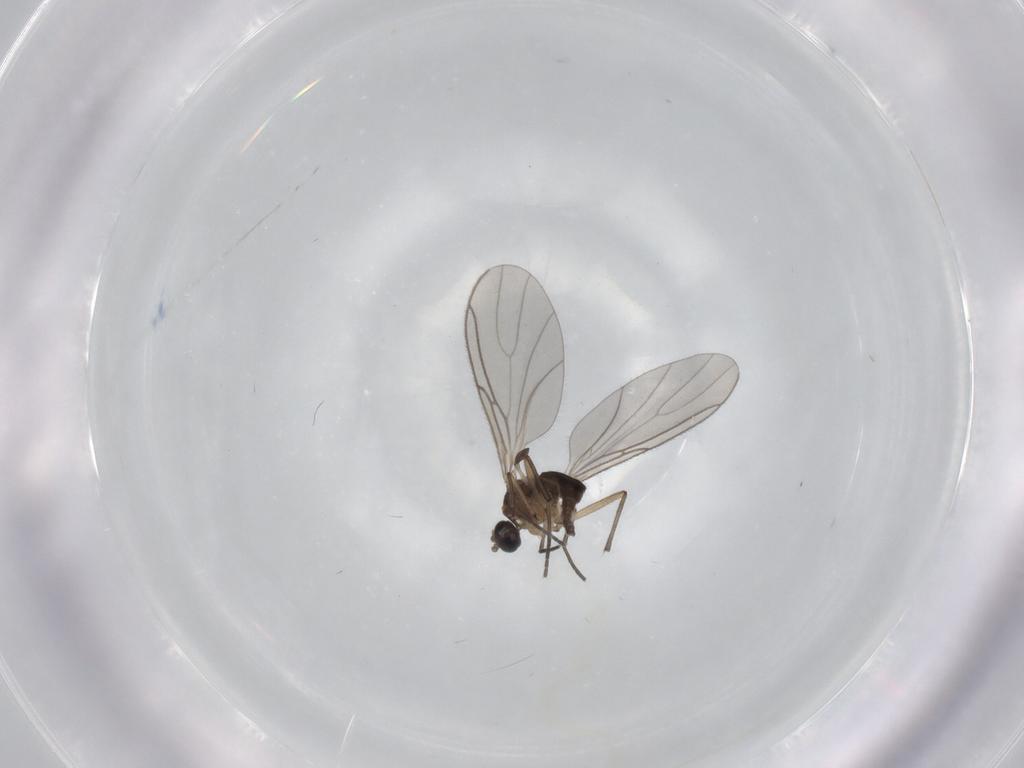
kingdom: Animalia
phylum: Arthropoda
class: Insecta
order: Diptera
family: Sciaridae
